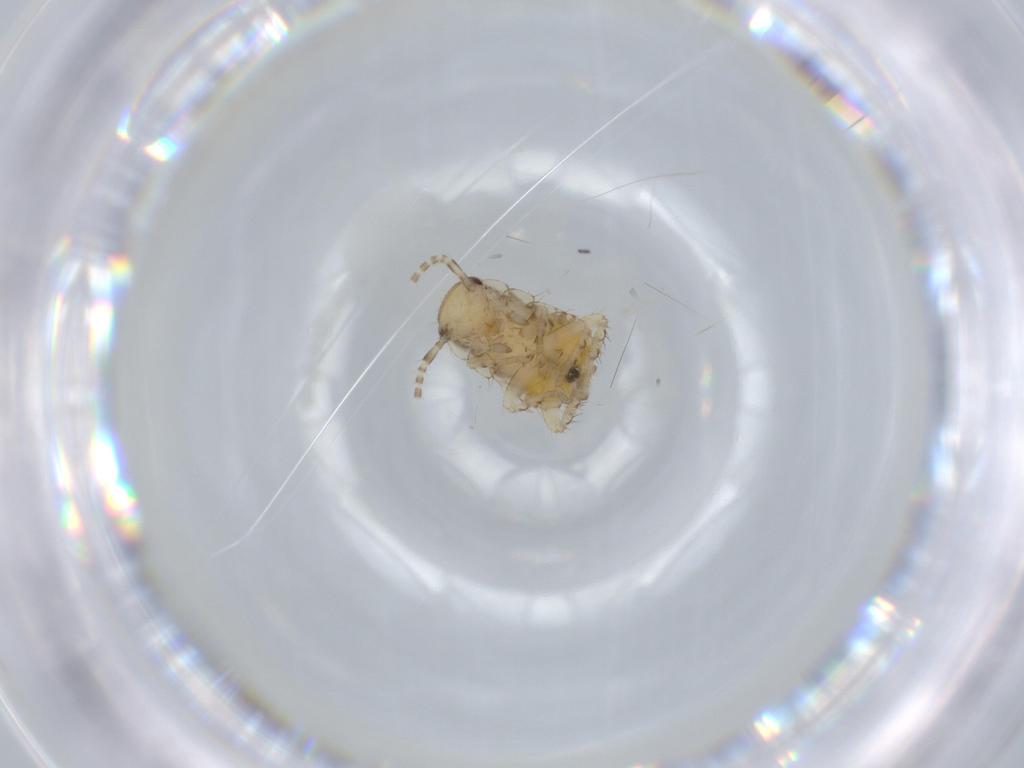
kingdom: Animalia
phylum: Arthropoda
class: Insecta
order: Blattodea
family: Ectobiidae
